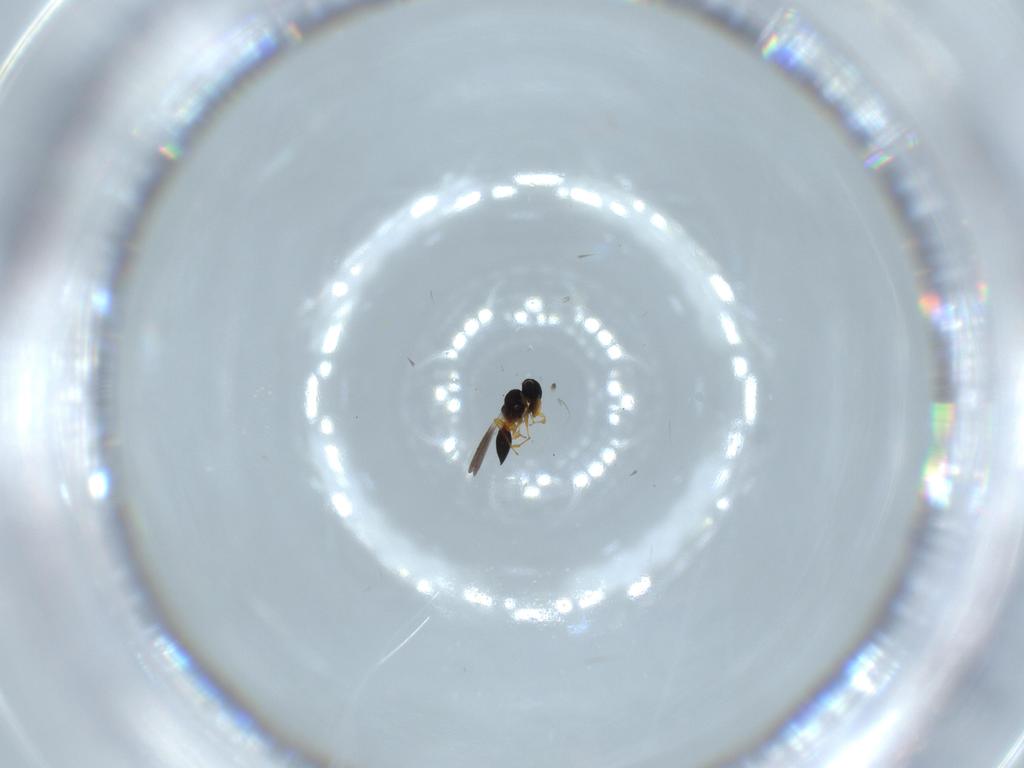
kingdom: Animalia
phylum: Arthropoda
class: Insecta
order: Hymenoptera
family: Platygastridae
